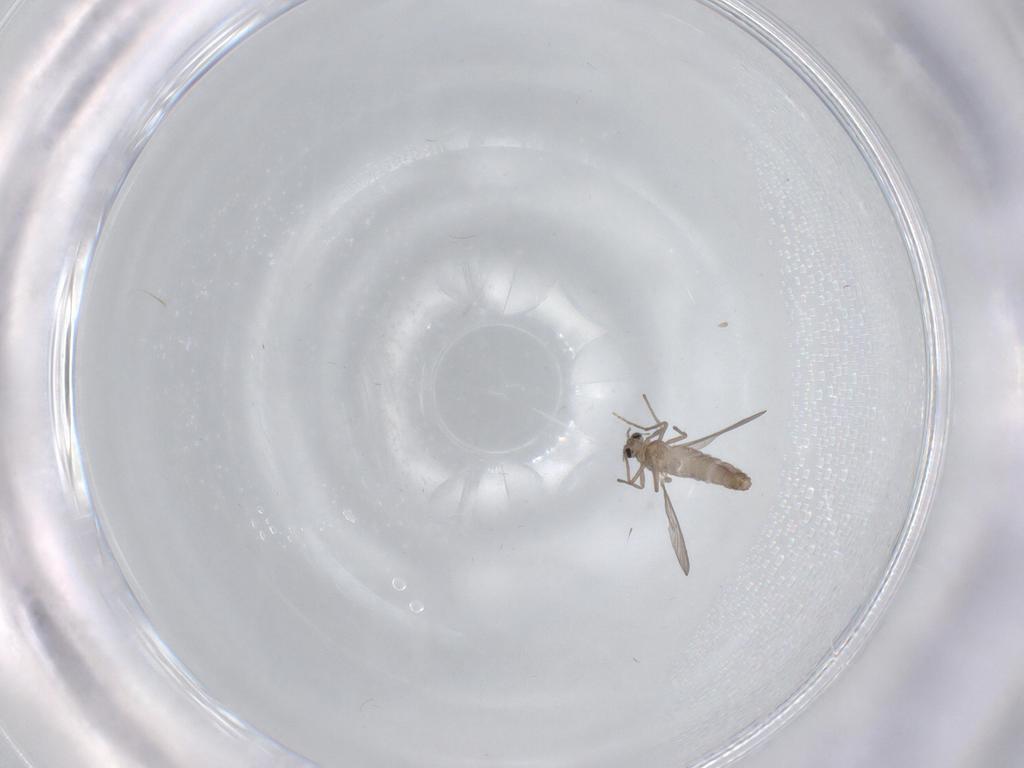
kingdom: Animalia
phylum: Arthropoda
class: Insecta
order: Diptera
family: Chironomidae
